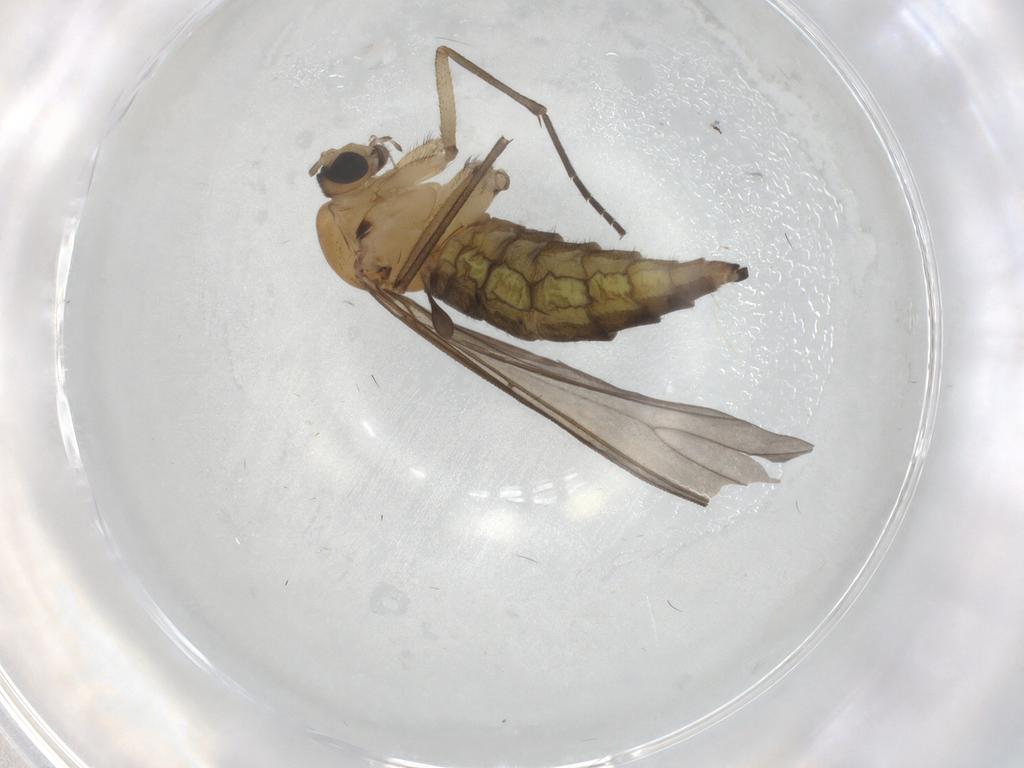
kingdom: Animalia
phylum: Arthropoda
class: Insecta
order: Diptera
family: Sciaridae
